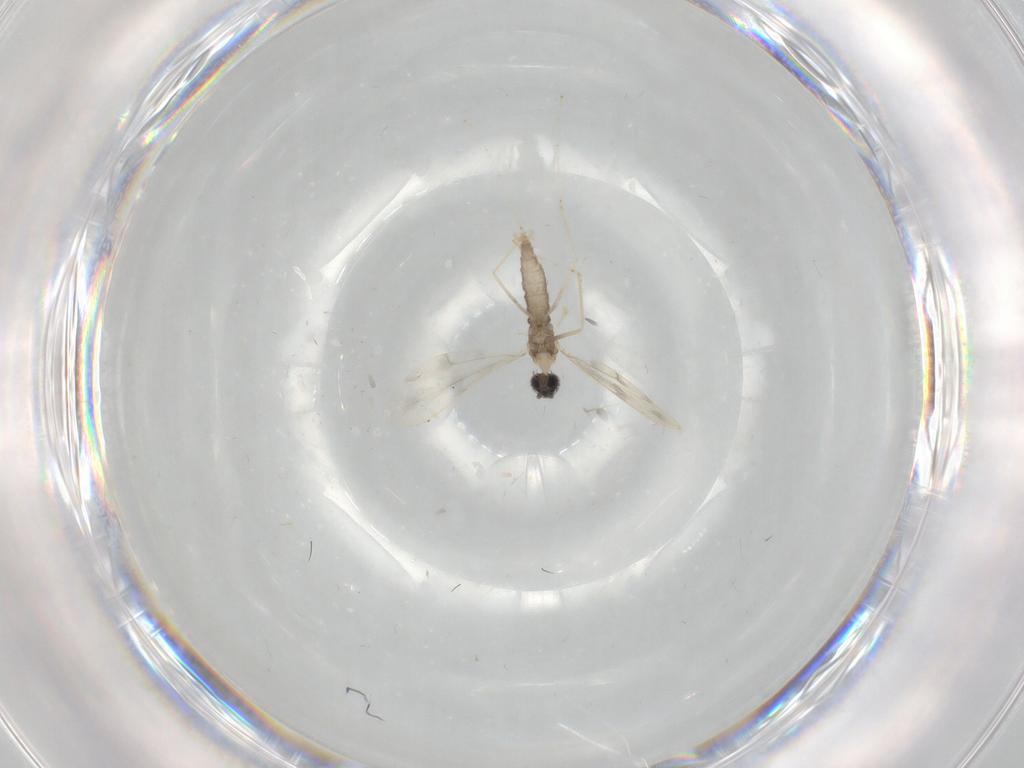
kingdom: Animalia
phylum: Arthropoda
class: Insecta
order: Diptera
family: Cecidomyiidae
